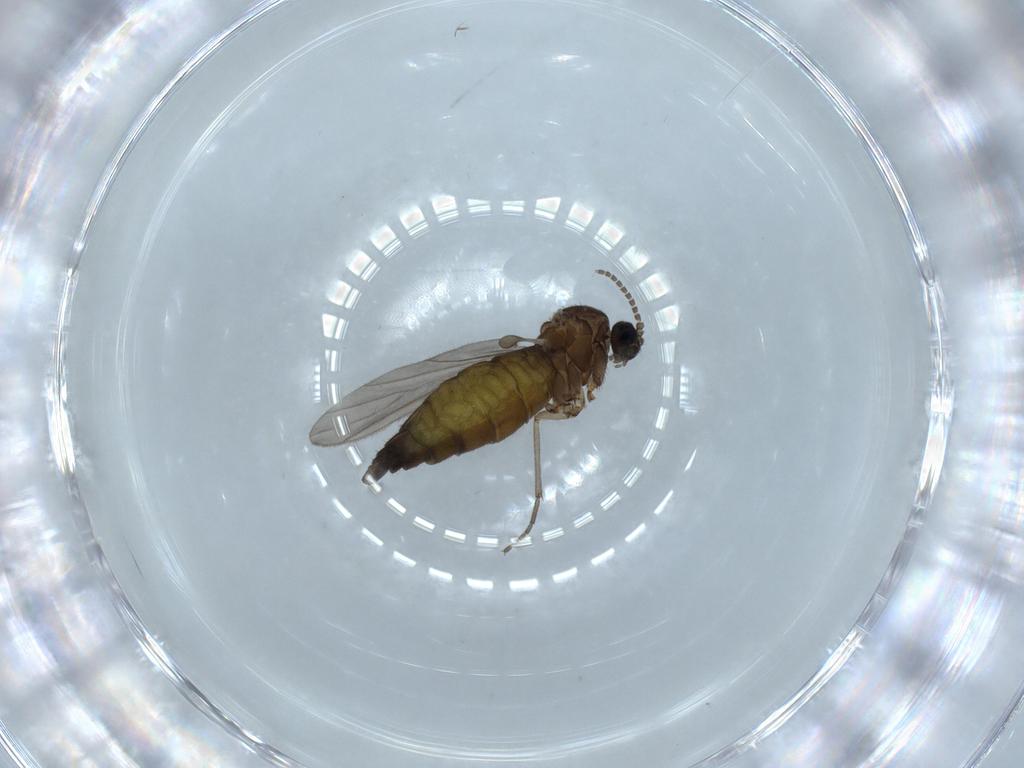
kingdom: Animalia
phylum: Arthropoda
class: Insecta
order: Diptera
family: Sciaridae
